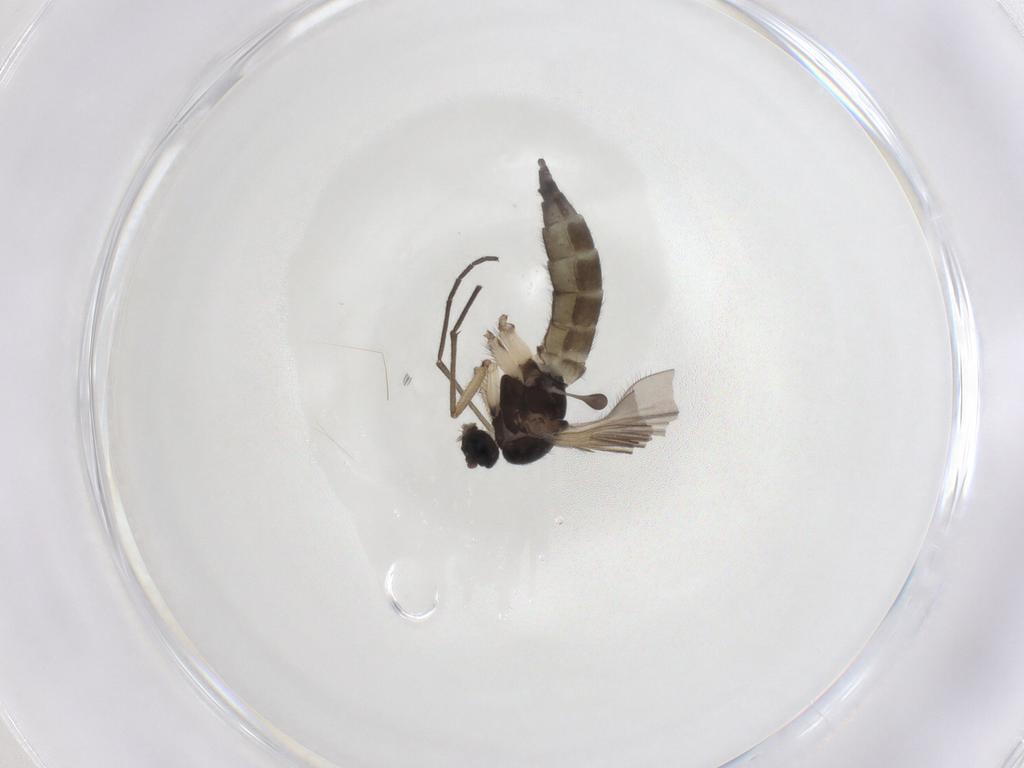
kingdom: Animalia
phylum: Arthropoda
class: Insecta
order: Diptera
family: Sciaridae
